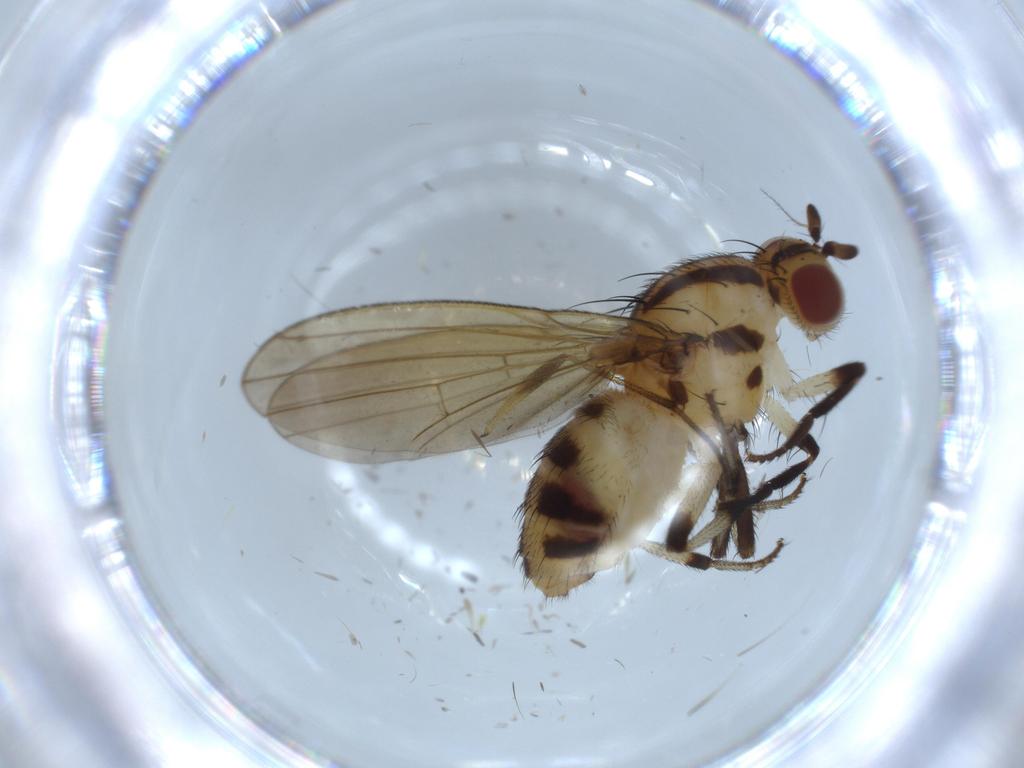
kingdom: Animalia
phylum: Arthropoda
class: Insecta
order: Diptera
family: Lauxaniidae
